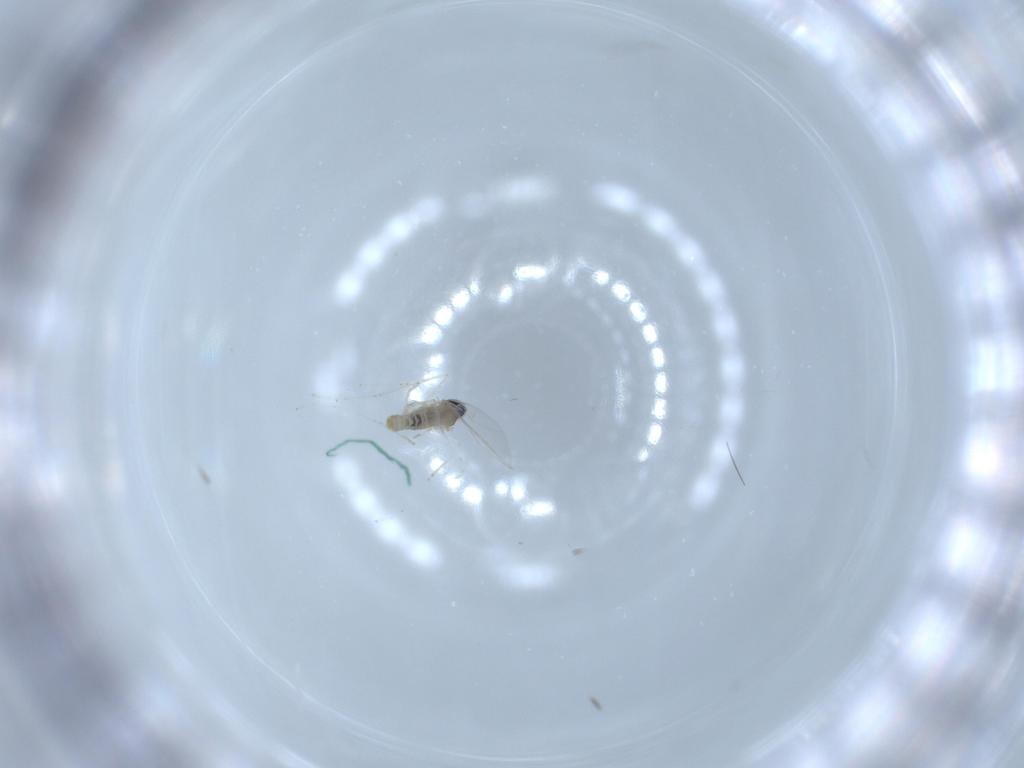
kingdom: Animalia
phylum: Arthropoda
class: Insecta
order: Diptera
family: Cecidomyiidae
